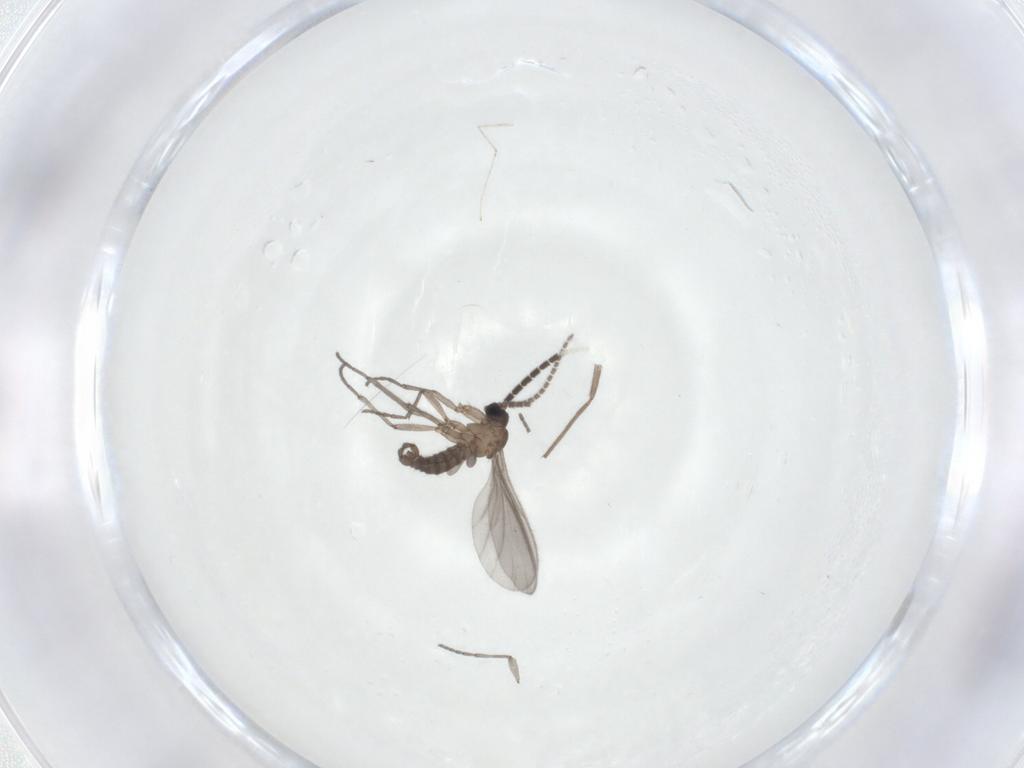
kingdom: Animalia
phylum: Arthropoda
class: Insecta
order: Diptera
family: Sciaridae
